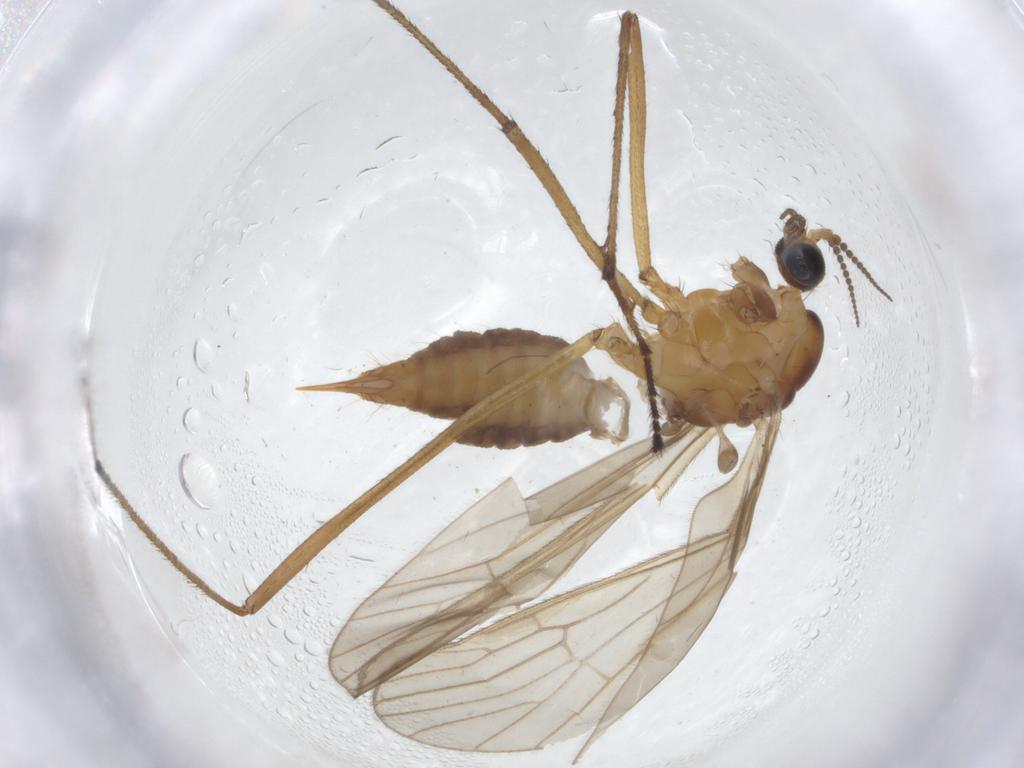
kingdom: Animalia
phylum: Arthropoda
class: Insecta
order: Diptera
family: Limoniidae
